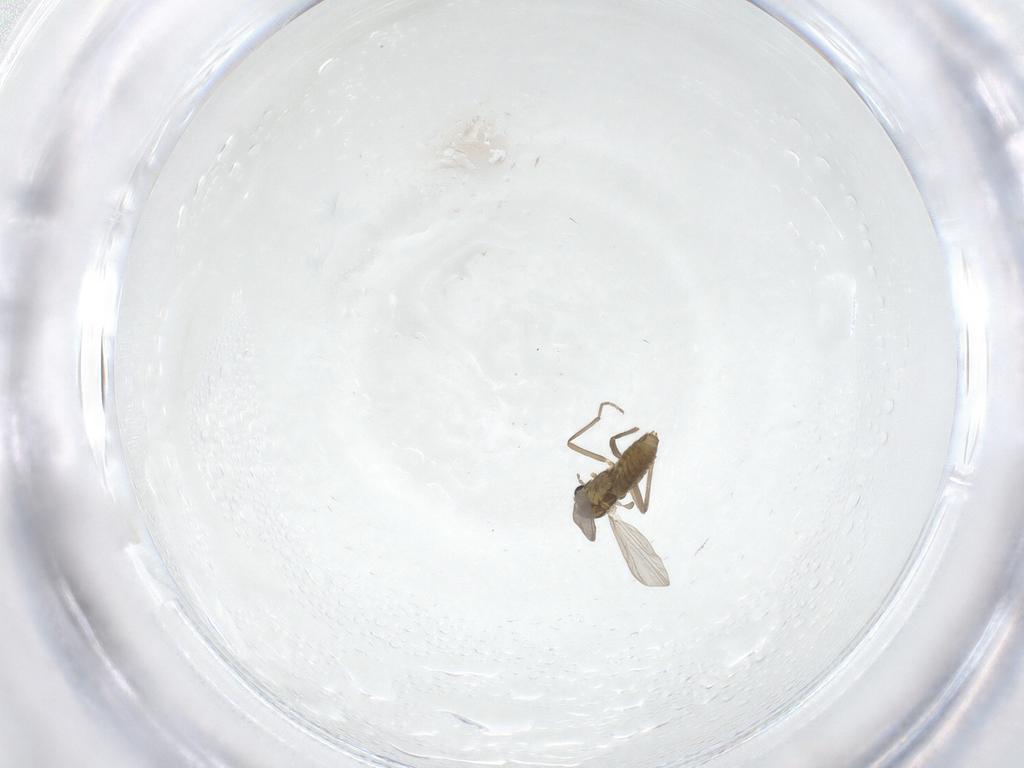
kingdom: Animalia
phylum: Arthropoda
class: Insecta
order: Diptera
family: Chironomidae
